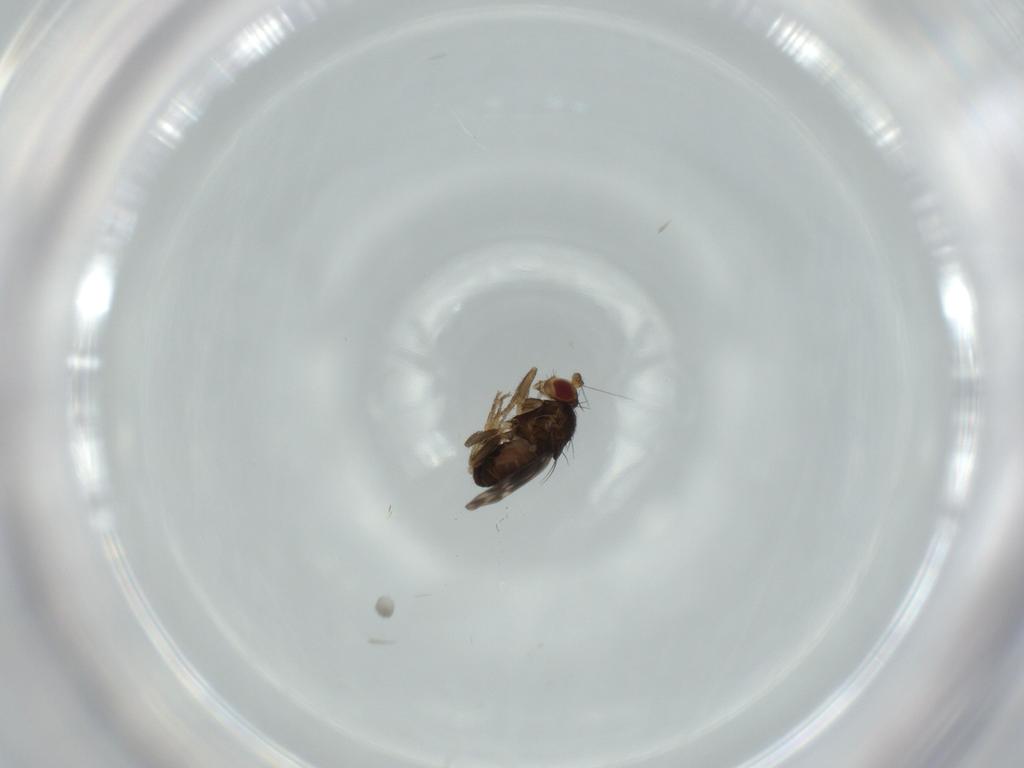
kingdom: Animalia
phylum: Arthropoda
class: Insecta
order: Diptera
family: Sphaeroceridae
